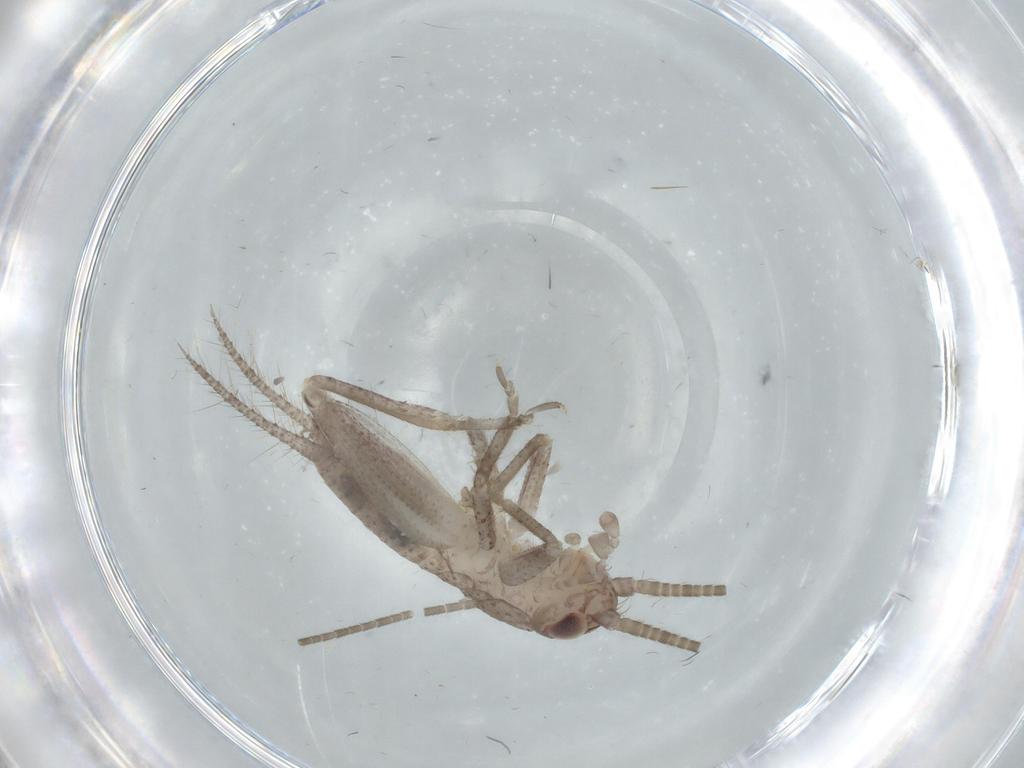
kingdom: Animalia
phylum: Arthropoda
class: Insecta
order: Orthoptera
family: Gryllidae
